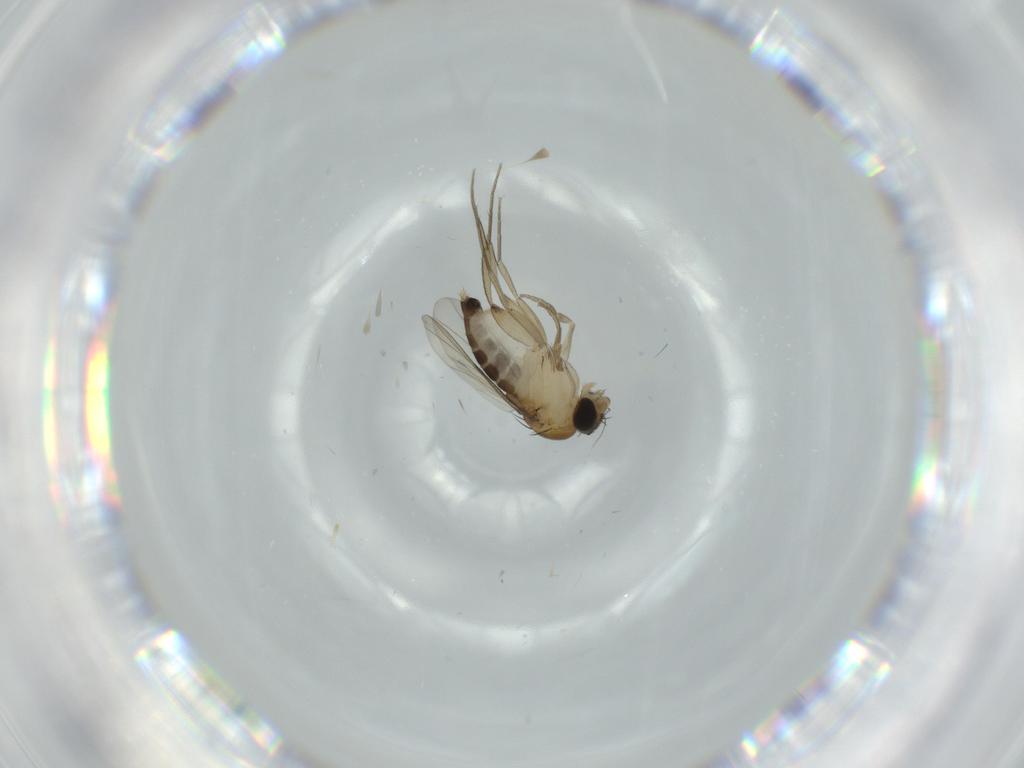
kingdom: Animalia
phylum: Arthropoda
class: Insecta
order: Diptera
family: Phoridae
